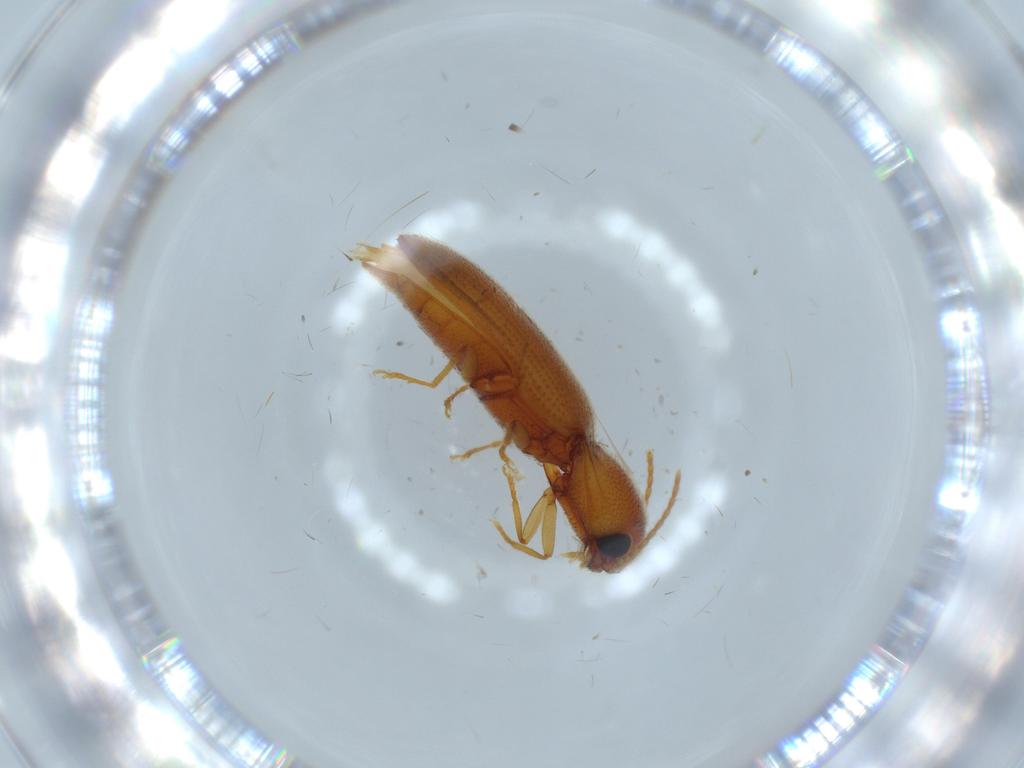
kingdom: Animalia
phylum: Arthropoda
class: Insecta
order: Coleoptera
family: Elateridae
